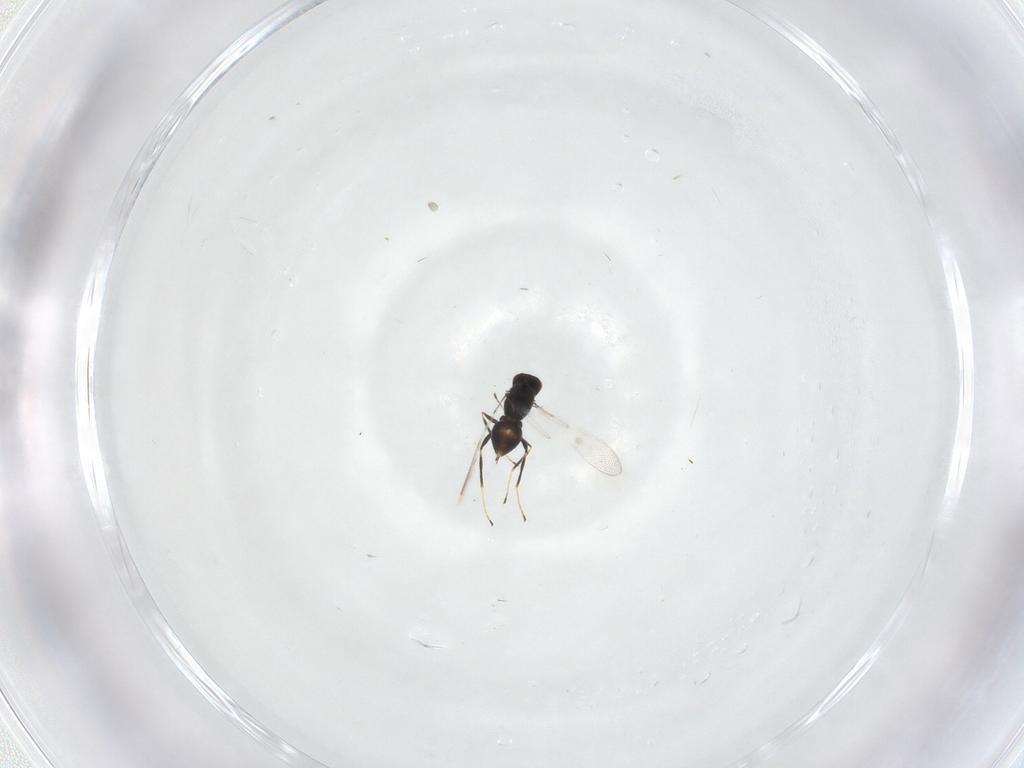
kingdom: Animalia
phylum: Arthropoda
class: Insecta
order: Hymenoptera
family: Mymaridae
